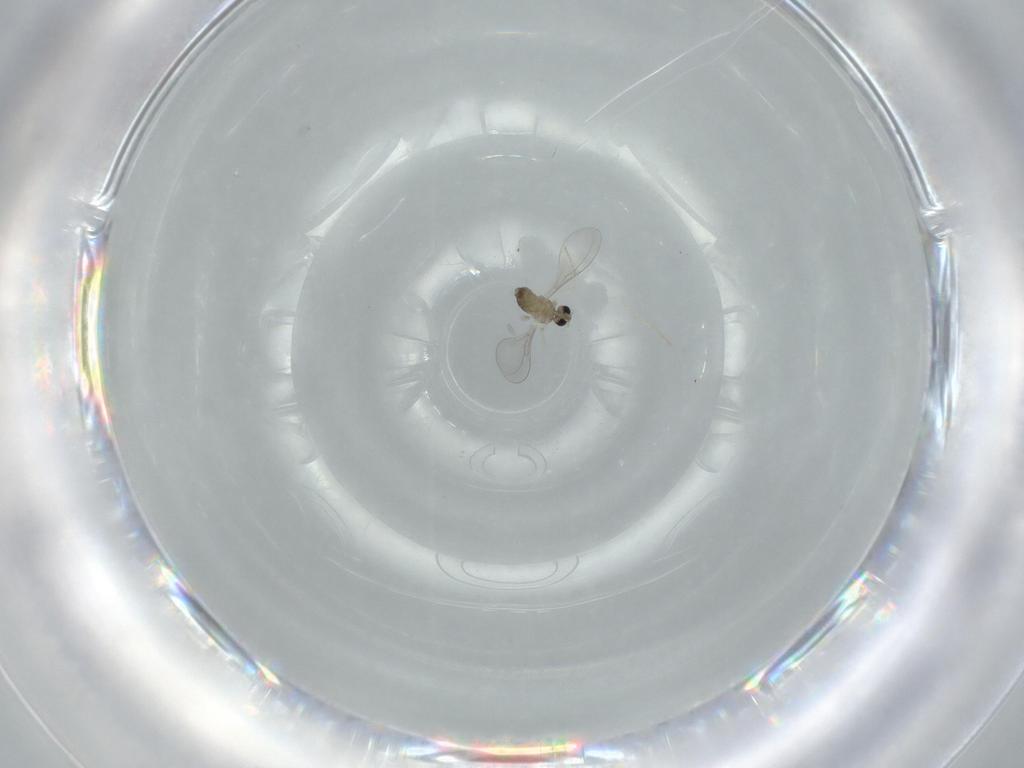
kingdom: Animalia
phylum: Arthropoda
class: Insecta
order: Diptera
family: Cecidomyiidae
